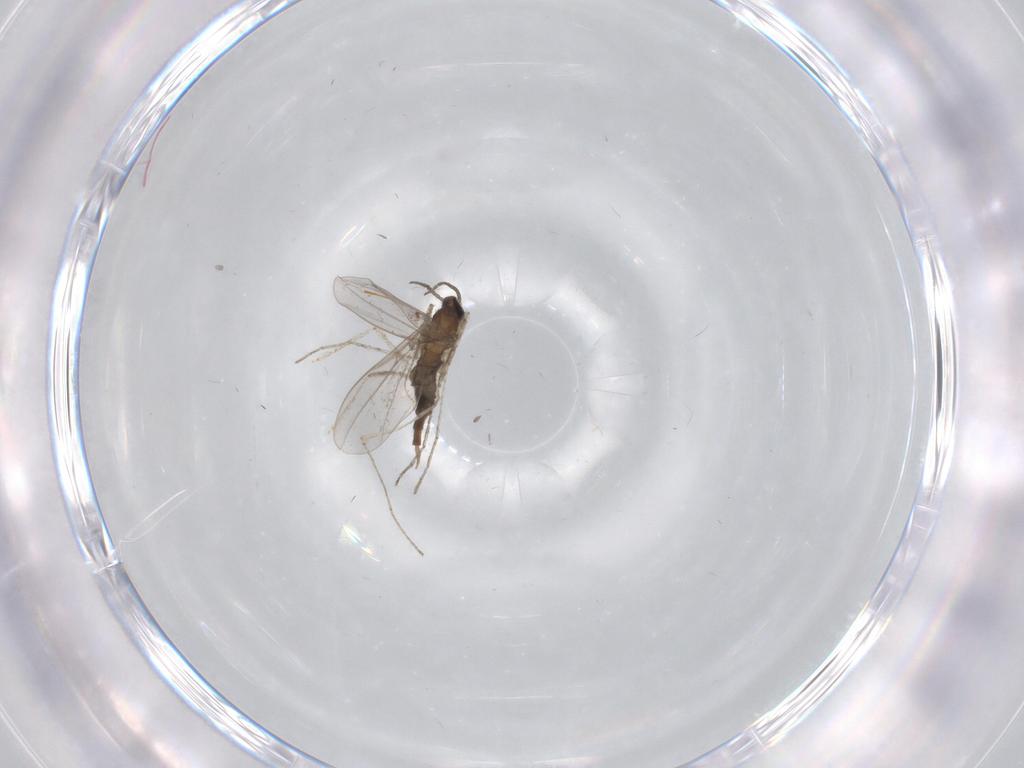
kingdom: Animalia
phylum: Arthropoda
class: Insecta
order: Diptera
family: Cecidomyiidae
